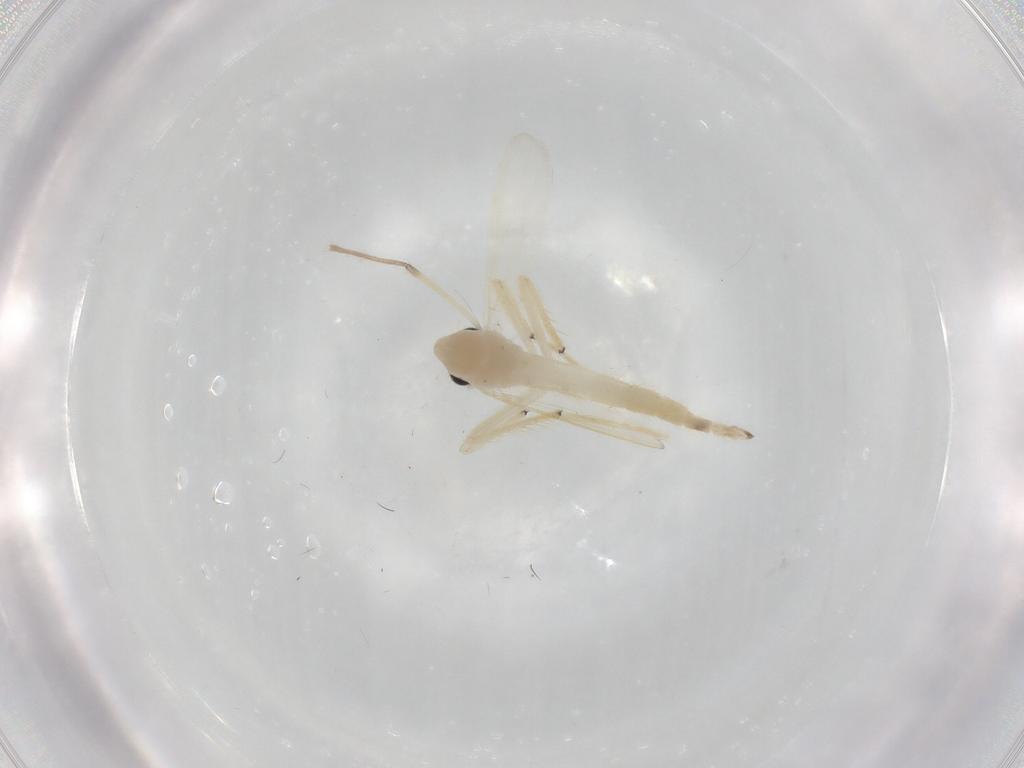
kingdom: Animalia
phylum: Arthropoda
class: Insecta
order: Diptera
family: Chironomidae
